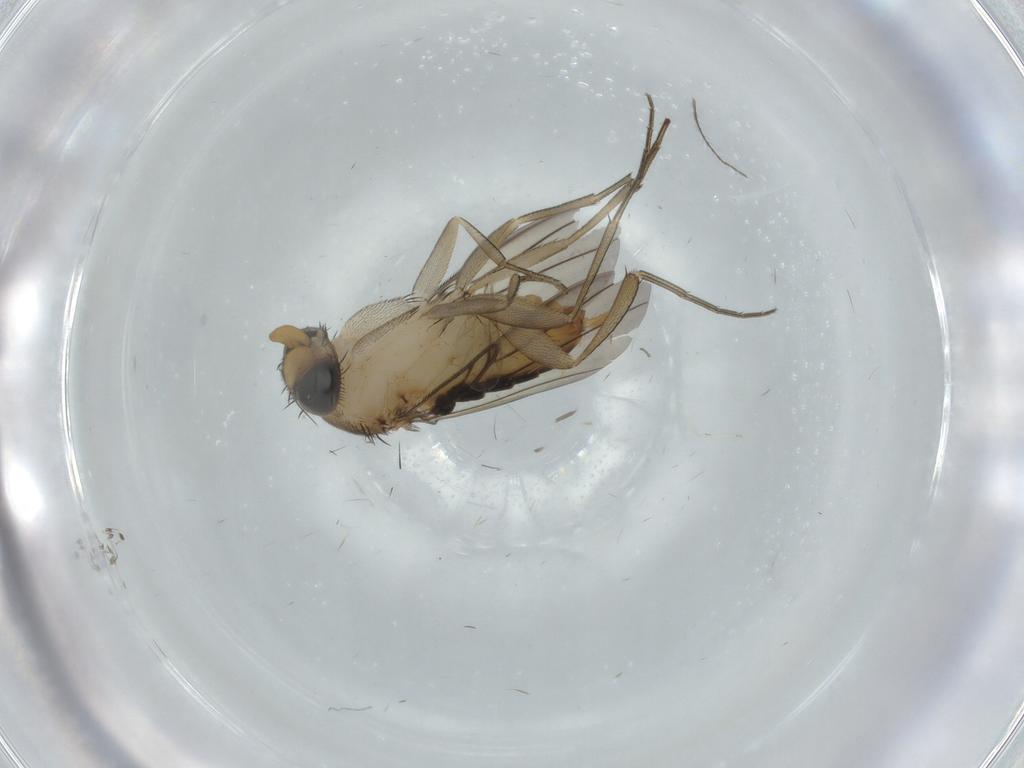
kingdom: Animalia
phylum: Arthropoda
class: Insecta
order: Diptera
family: Phoridae
